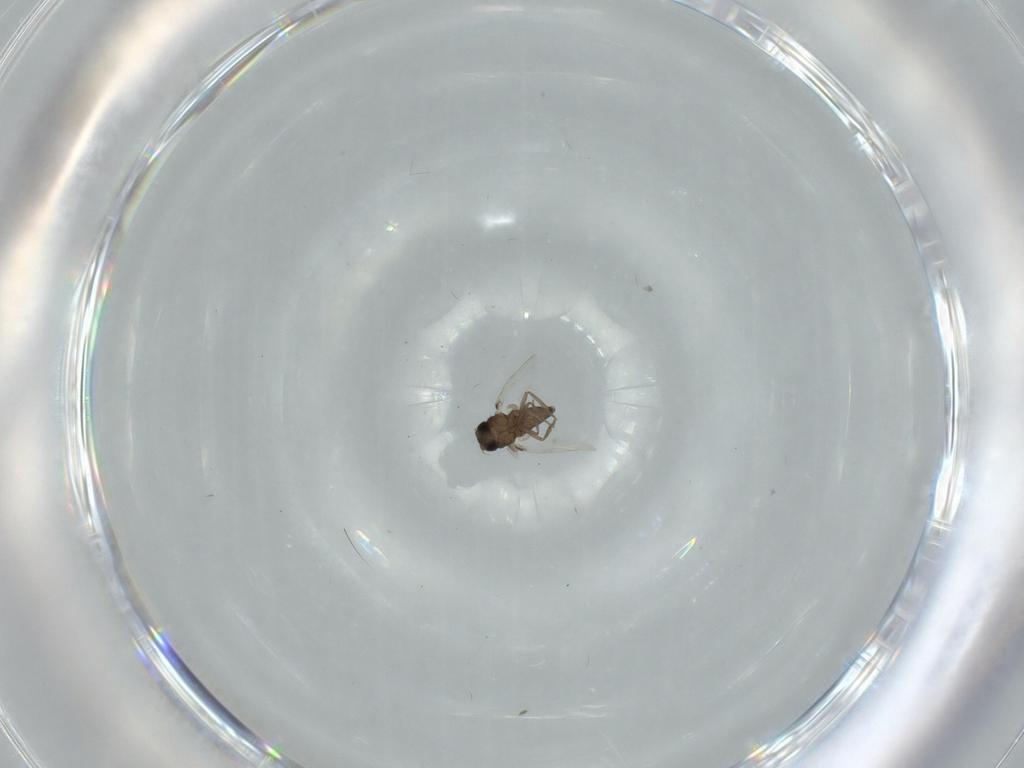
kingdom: Animalia
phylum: Arthropoda
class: Insecta
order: Diptera
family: Phoridae
